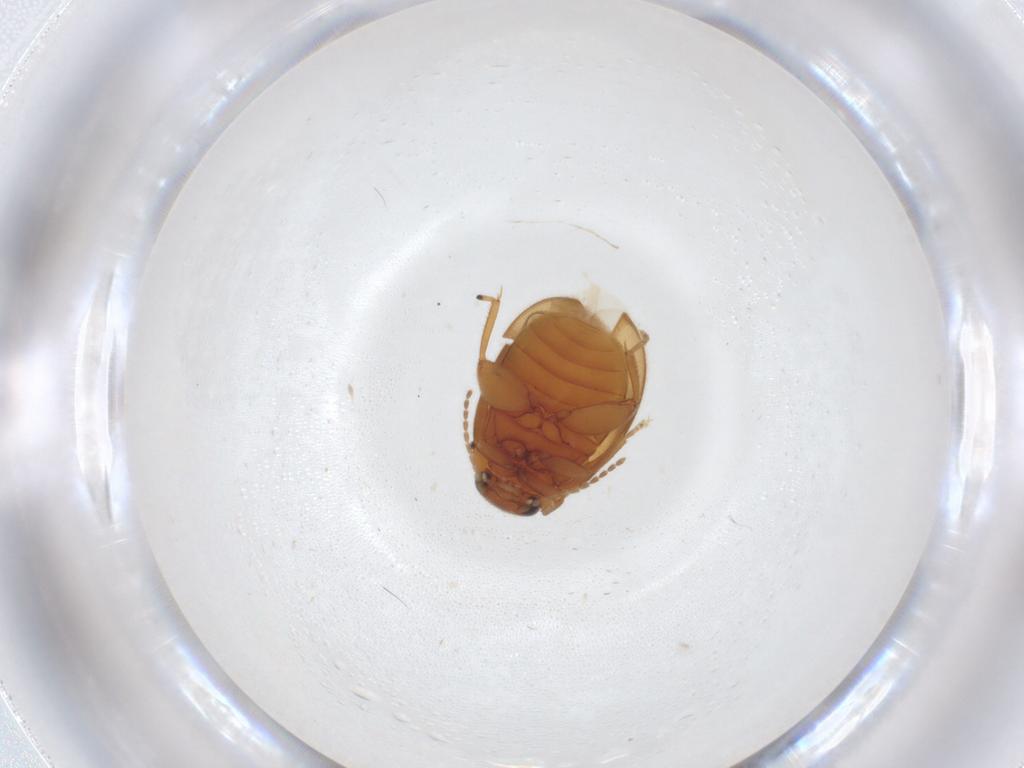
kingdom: Animalia
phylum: Arthropoda
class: Insecta
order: Coleoptera
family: Scirtidae
